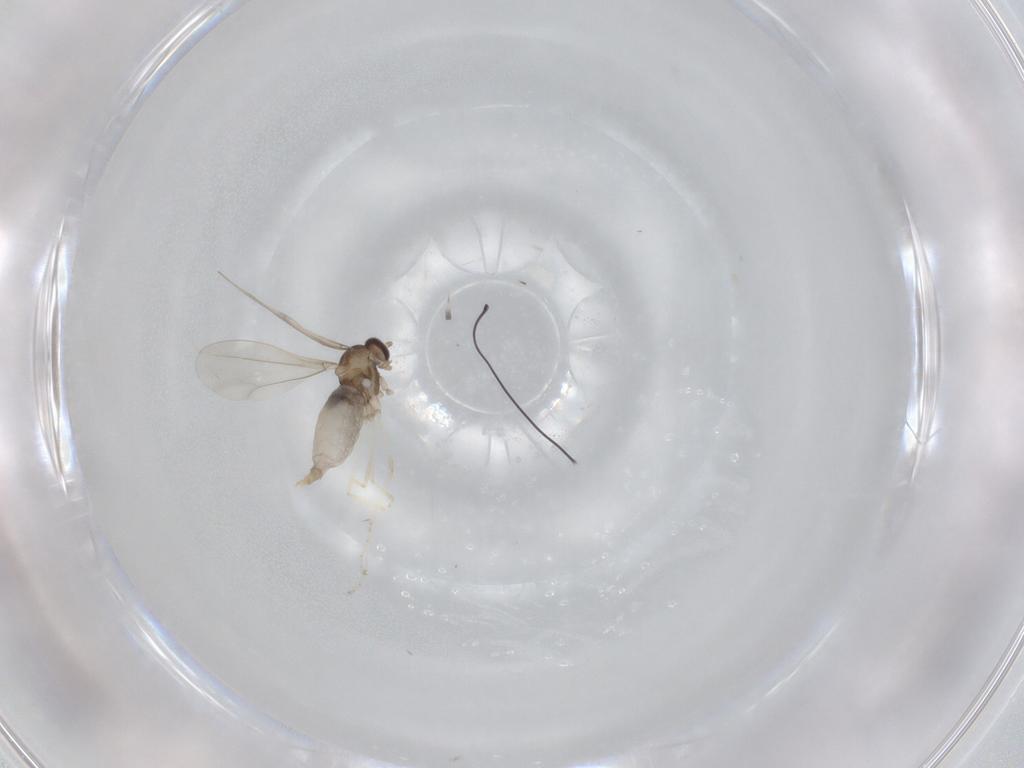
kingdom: Animalia
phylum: Arthropoda
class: Insecta
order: Diptera
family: Cecidomyiidae
